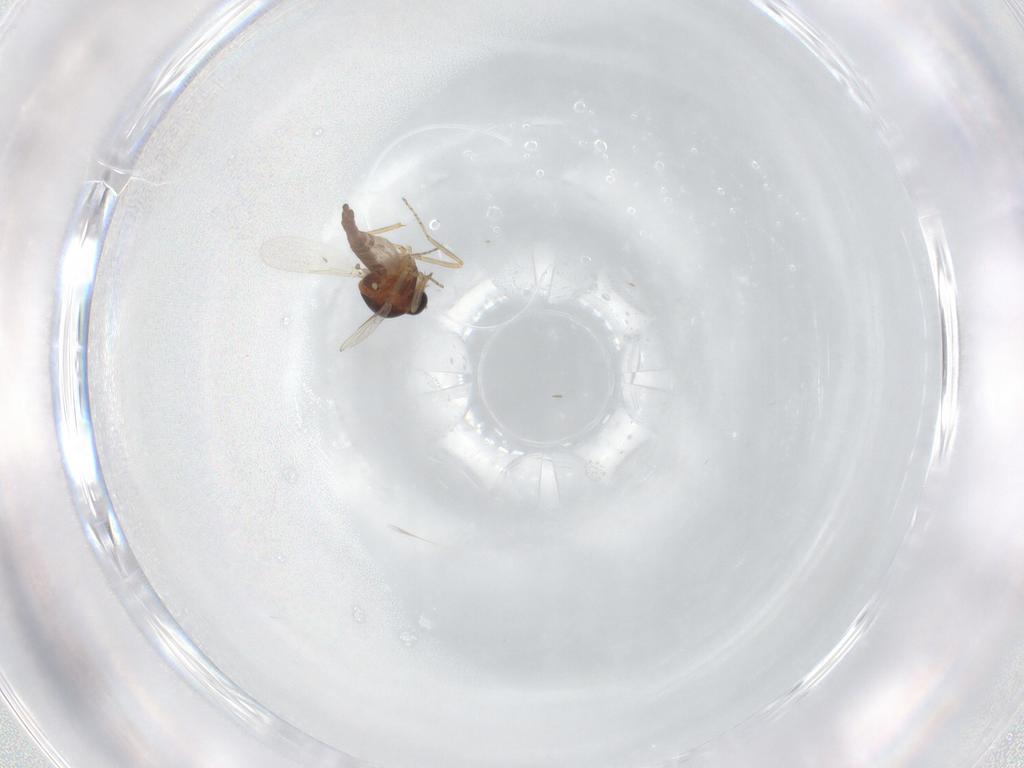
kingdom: Animalia
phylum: Arthropoda
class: Insecta
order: Diptera
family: Ceratopogonidae
